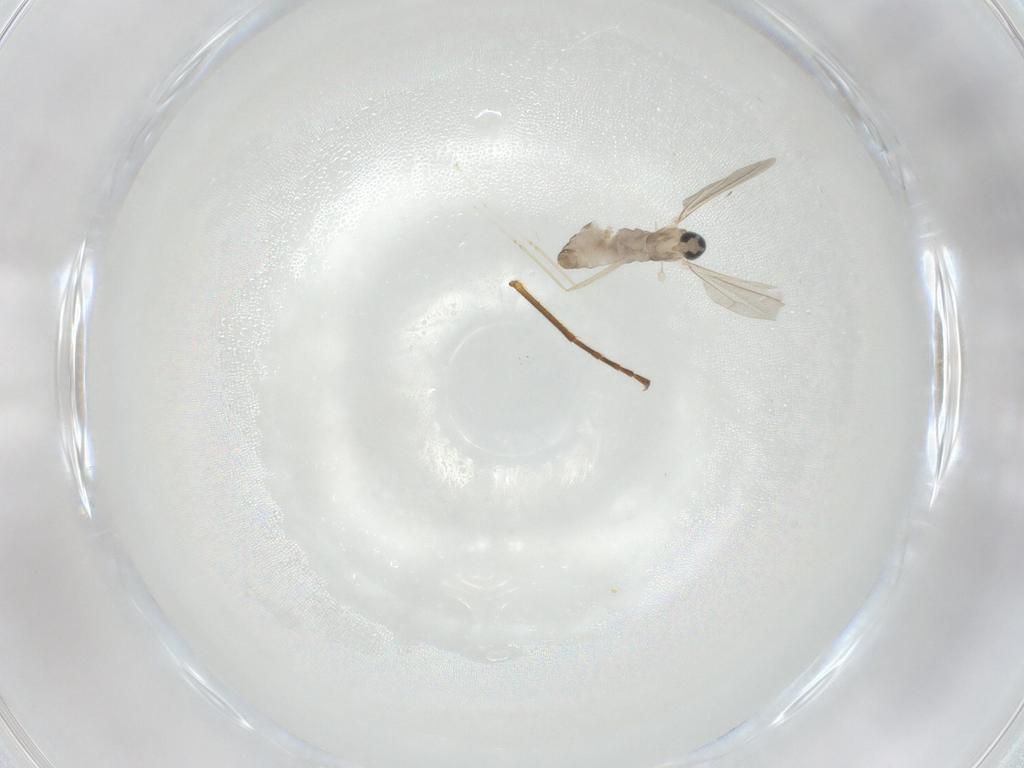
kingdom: Animalia
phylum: Arthropoda
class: Insecta
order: Diptera
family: Cecidomyiidae
